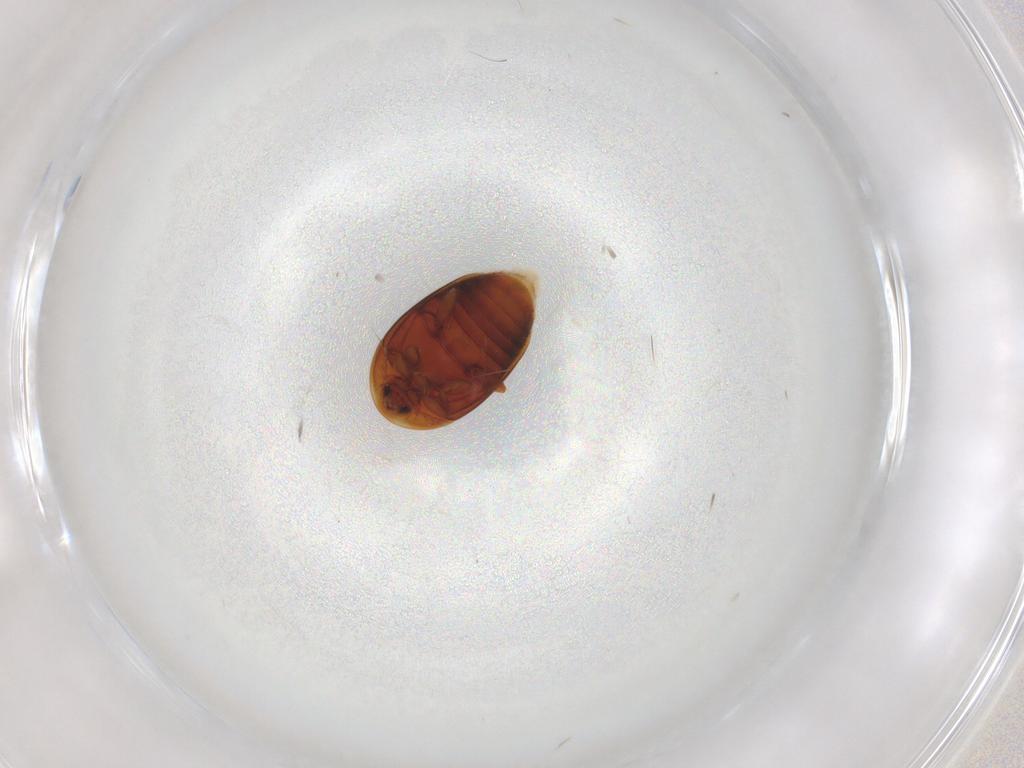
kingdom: Animalia
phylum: Arthropoda
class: Insecta
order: Coleoptera
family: Corylophidae
